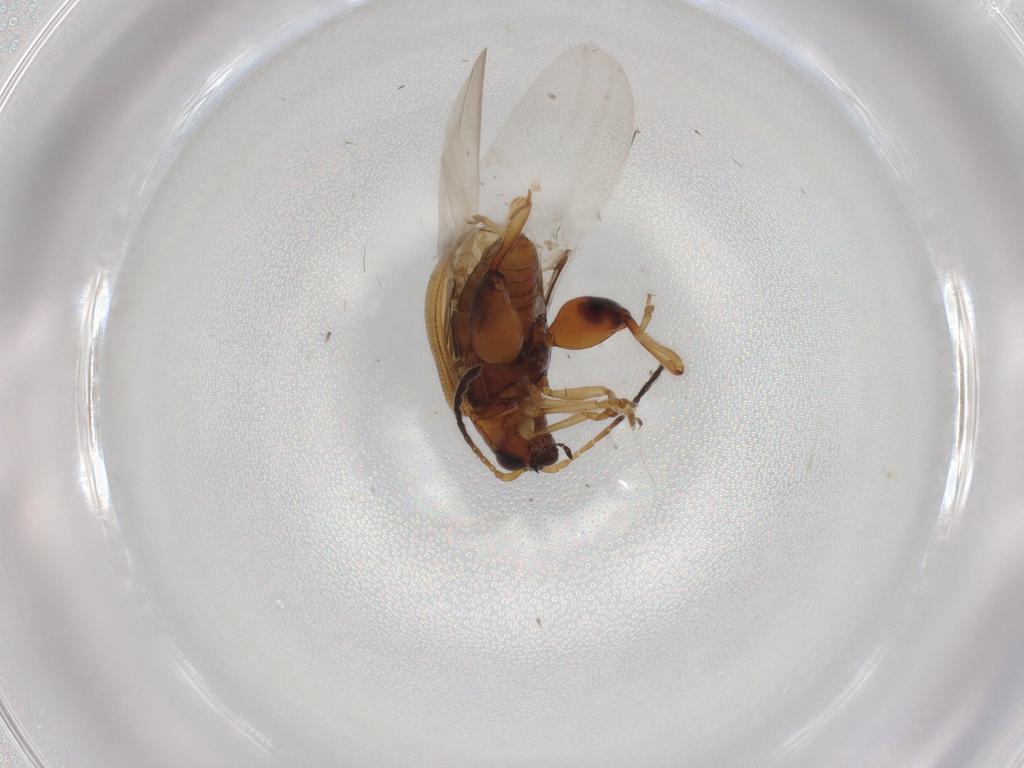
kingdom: Animalia
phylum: Arthropoda
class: Insecta
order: Coleoptera
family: Chrysomelidae
